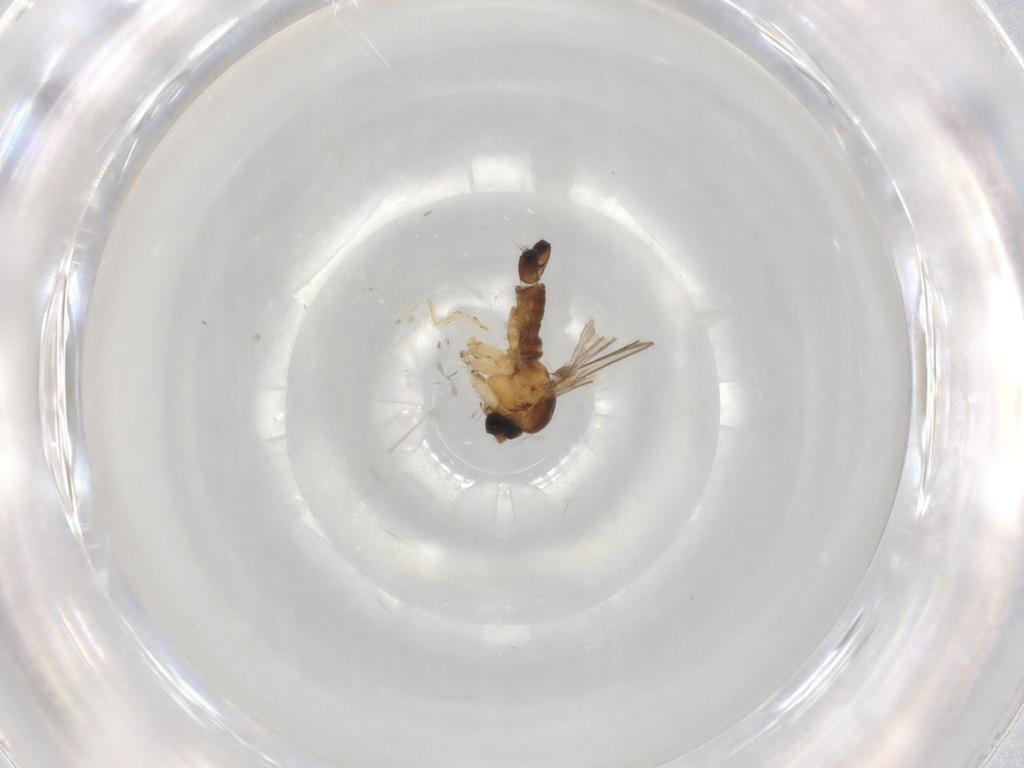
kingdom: Animalia
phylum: Arthropoda
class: Insecta
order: Diptera
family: Sciaridae
